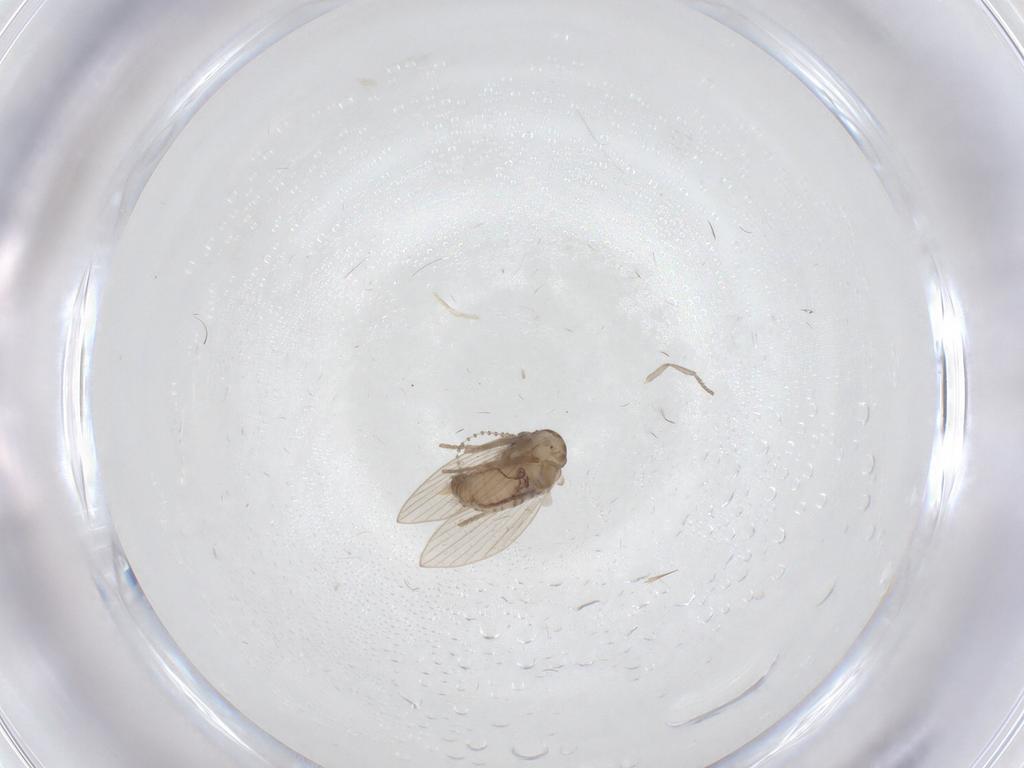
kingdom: Animalia
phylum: Arthropoda
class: Insecta
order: Diptera
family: Psychodidae
